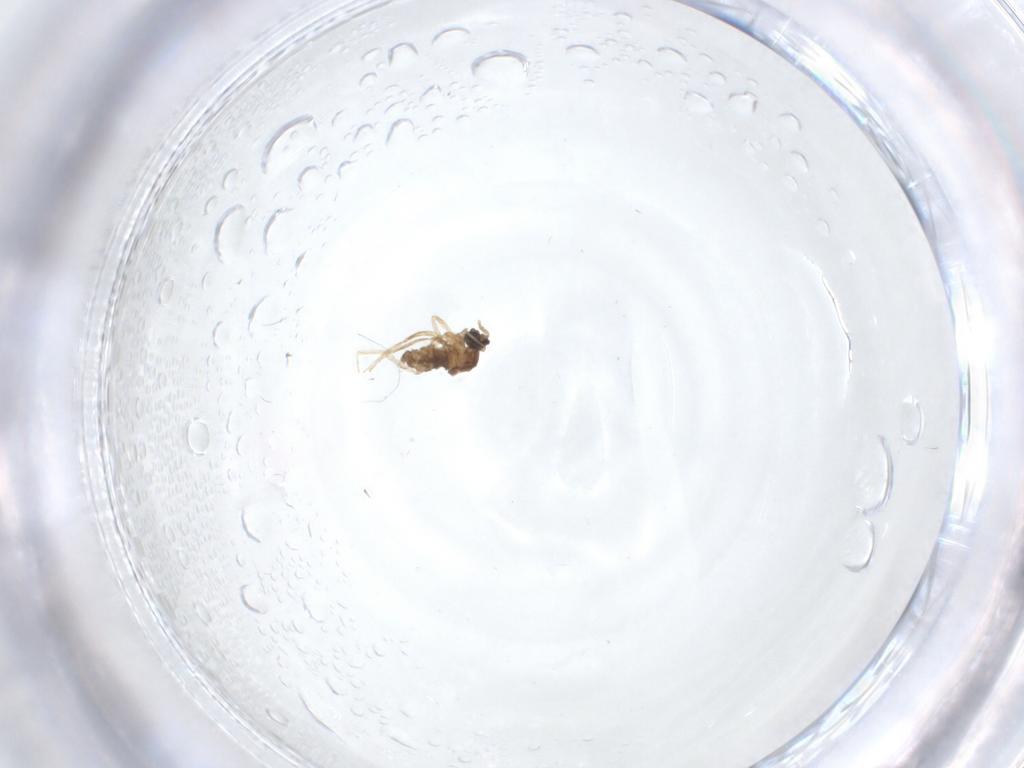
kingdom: Animalia
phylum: Arthropoda
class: Insecta
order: Diptera
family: Cecidomyiidae
